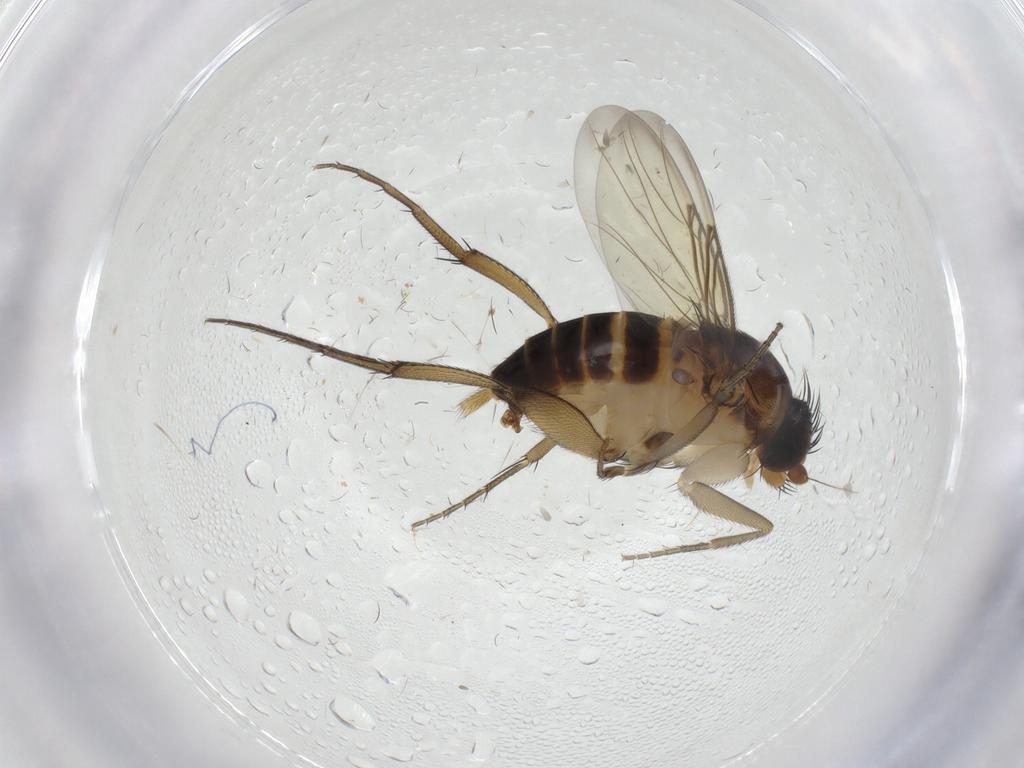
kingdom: Animalia
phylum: Arthropoda
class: Insecta
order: Diptera
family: Phoridae
